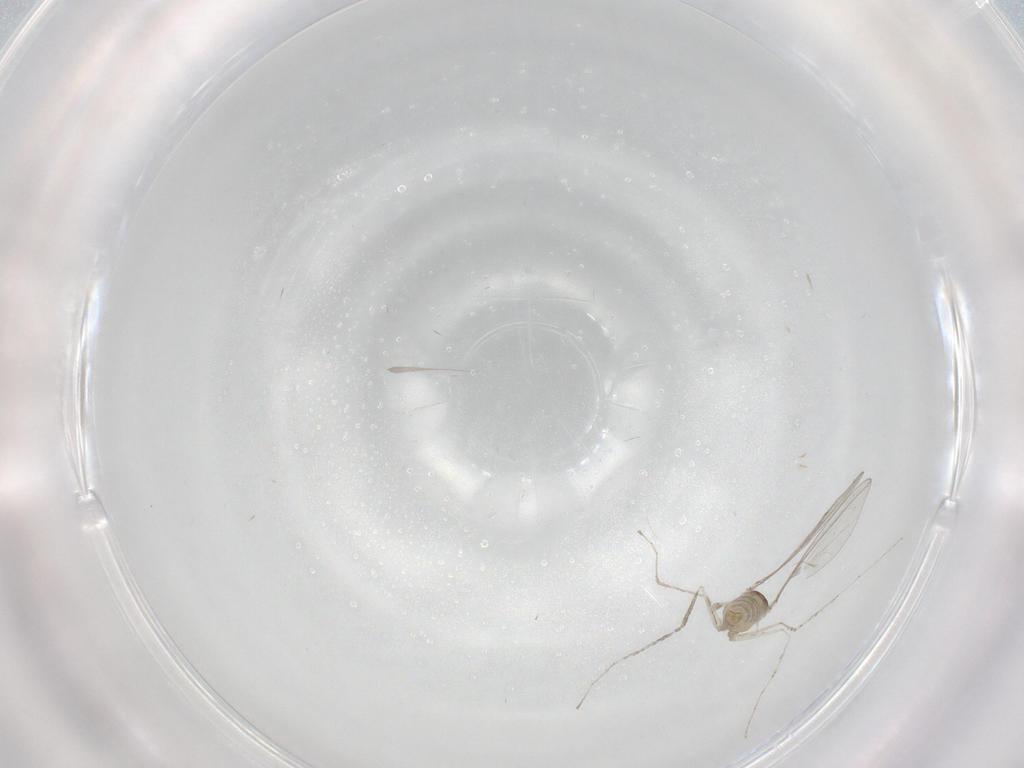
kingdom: Animalia
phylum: Arthropoda
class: Insecta
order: Diptera
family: Cecidomyiidae
